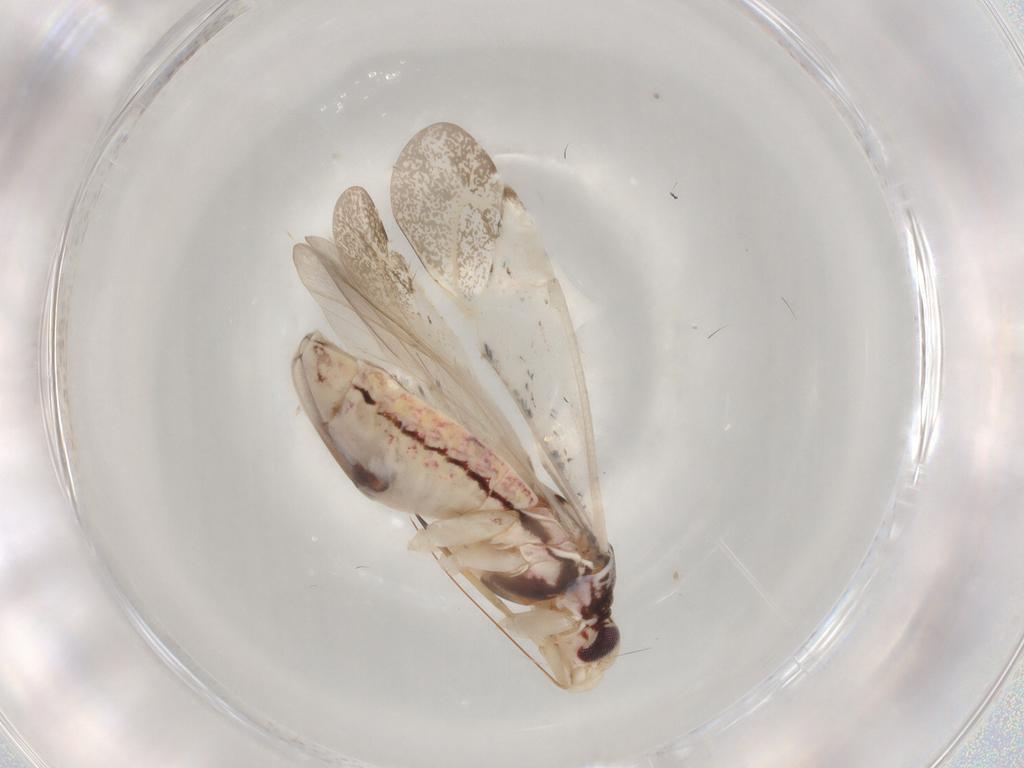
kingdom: Animalia
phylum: Arthropoda
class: Insecta
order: Hemiptera
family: Miridae
